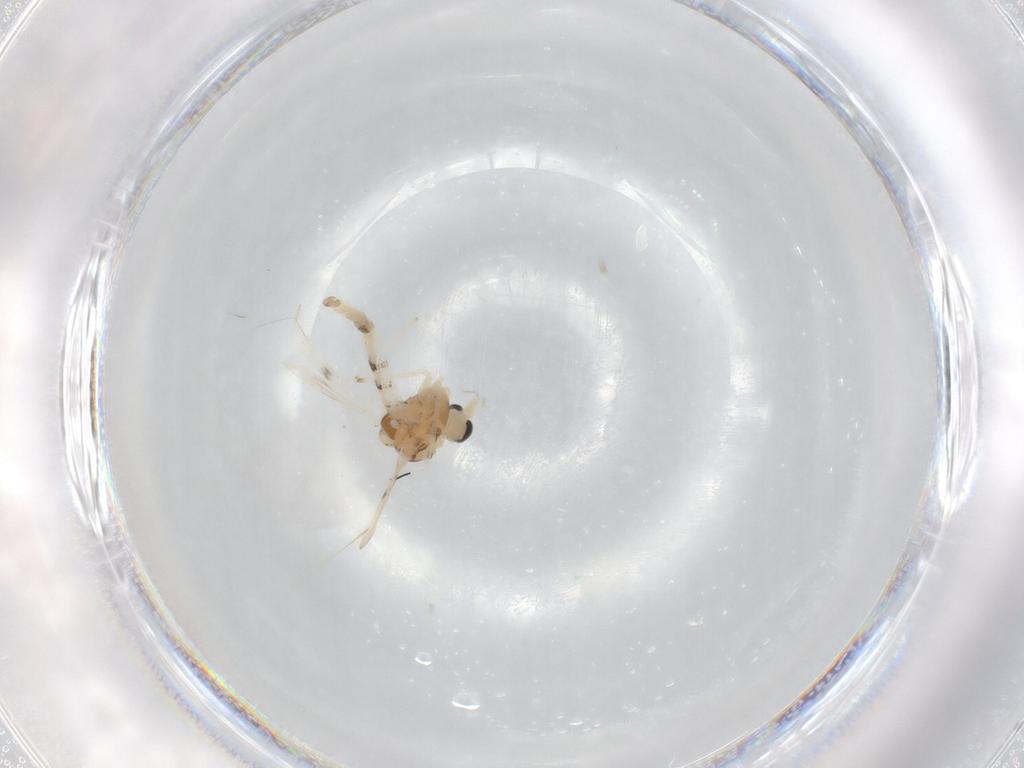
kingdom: Animalia
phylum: Arthropoda
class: Insecta
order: Diptera
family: Chironomidae
